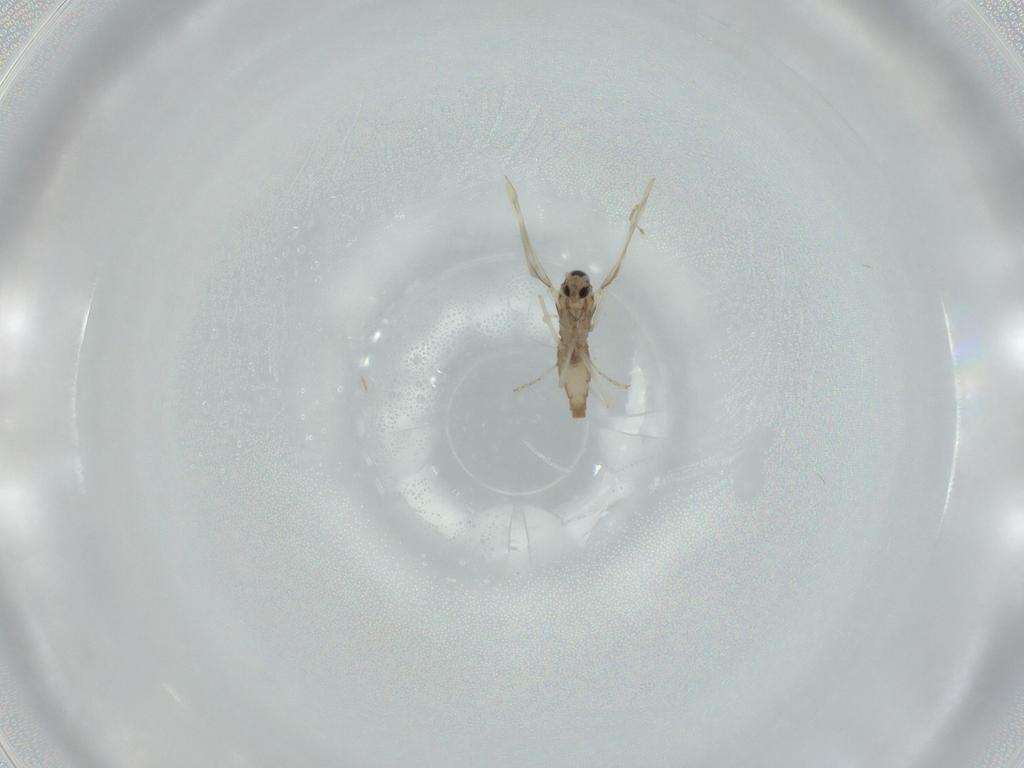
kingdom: Animalia
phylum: Arthropoda
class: Insecta
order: Diptera
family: Cecidomyiidae
